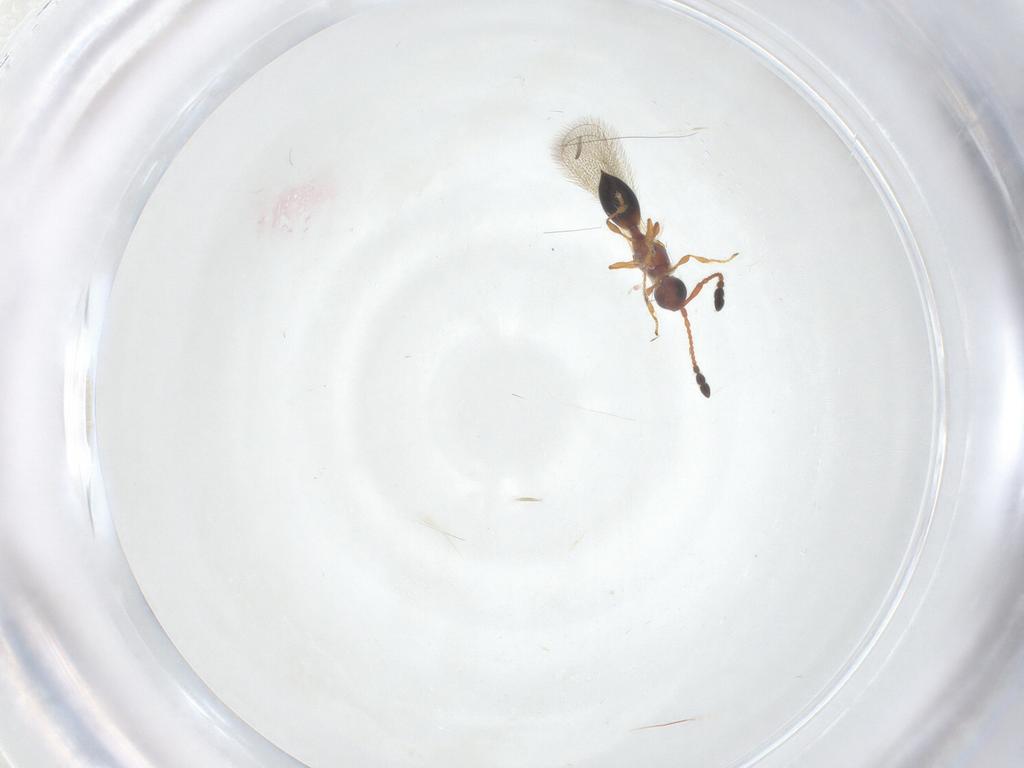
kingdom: Animalia
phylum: Arthropoda
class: Insecta
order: Hymenoptera
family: Diapriidae
